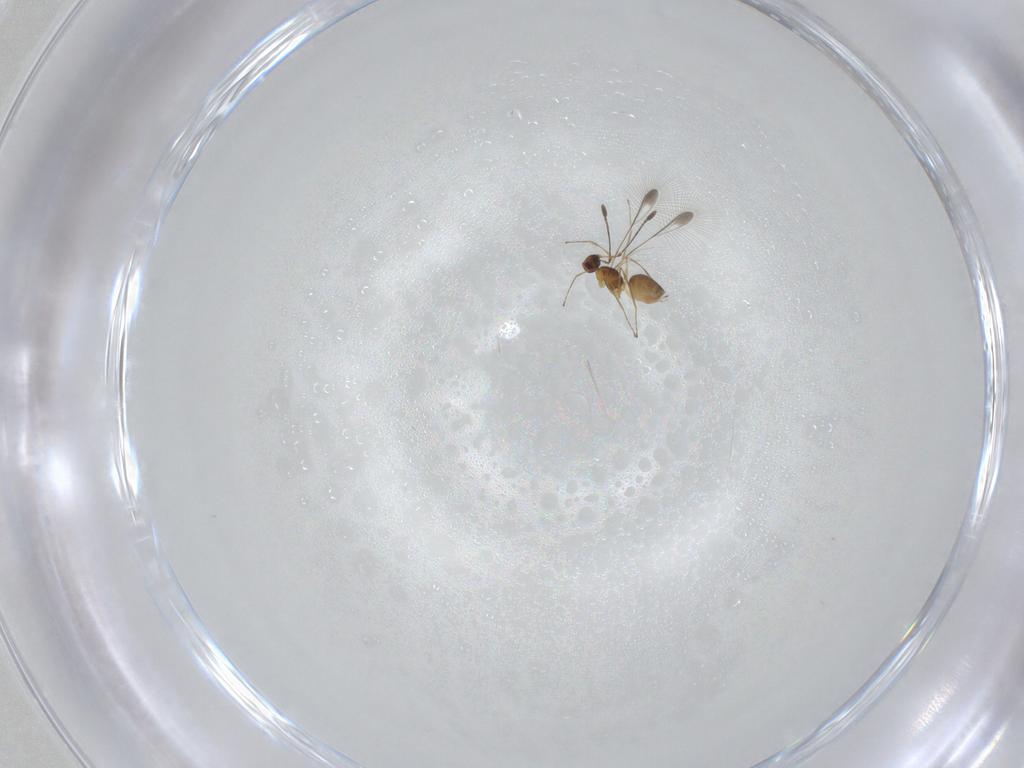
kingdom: Animalia
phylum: Arthropoda
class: Insecta
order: Hymenoptera
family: Mymaridae
